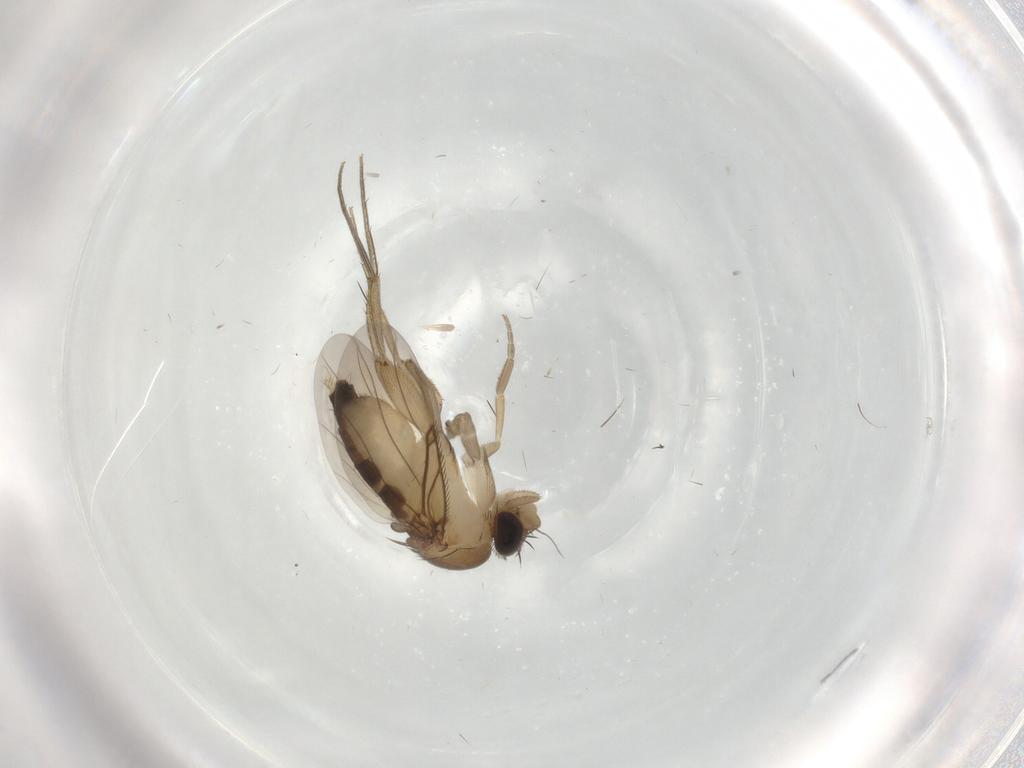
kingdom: Animalia
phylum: Arthropoda
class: Insecta
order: Diptera
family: Phoridae
